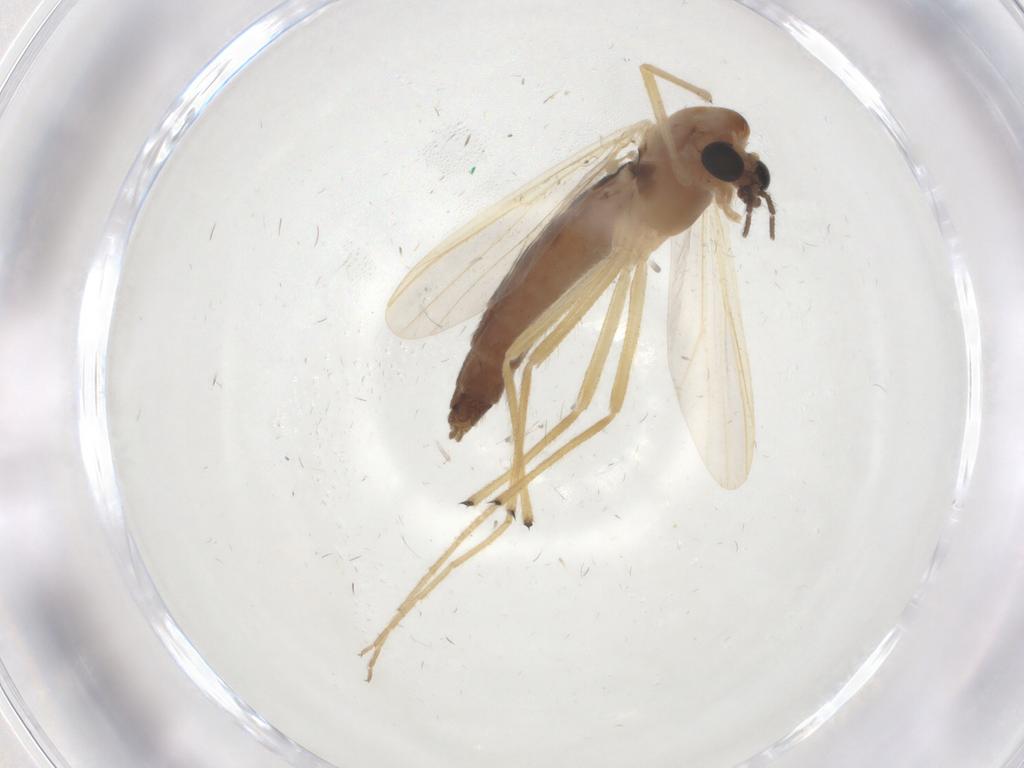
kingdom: Animalia
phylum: Arthropoda
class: Insecta
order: Diptera
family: Chironomidae
